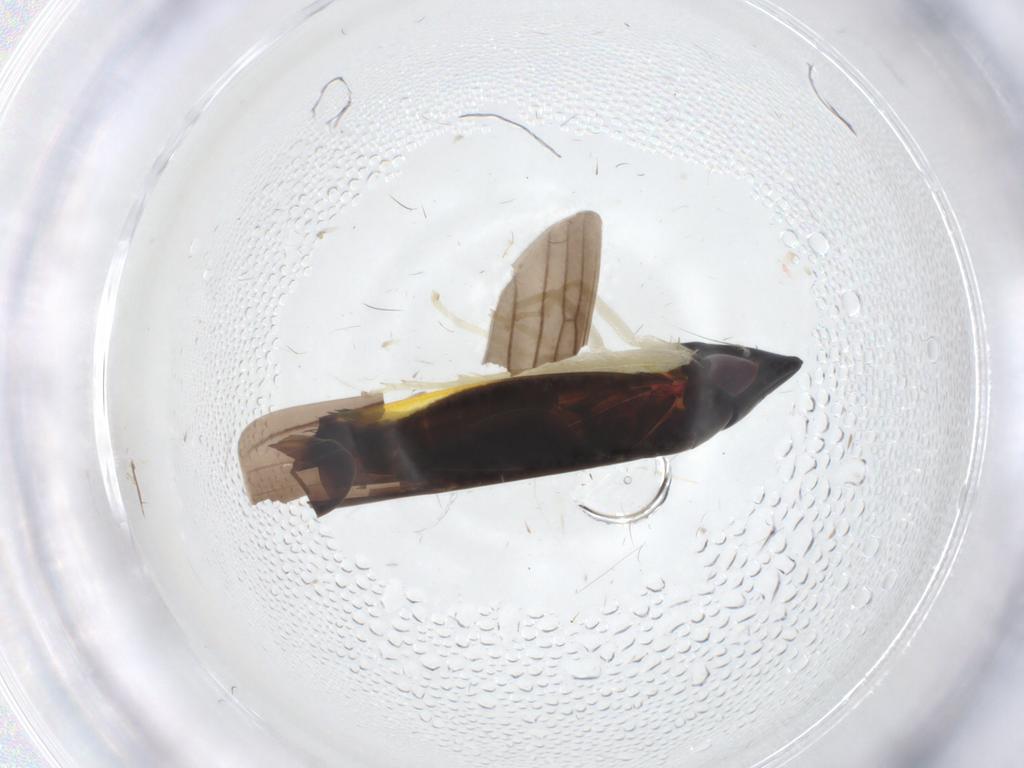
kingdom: Animalia
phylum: Arthropoda
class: Insecta
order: Hemiptera
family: Cicadellidae
